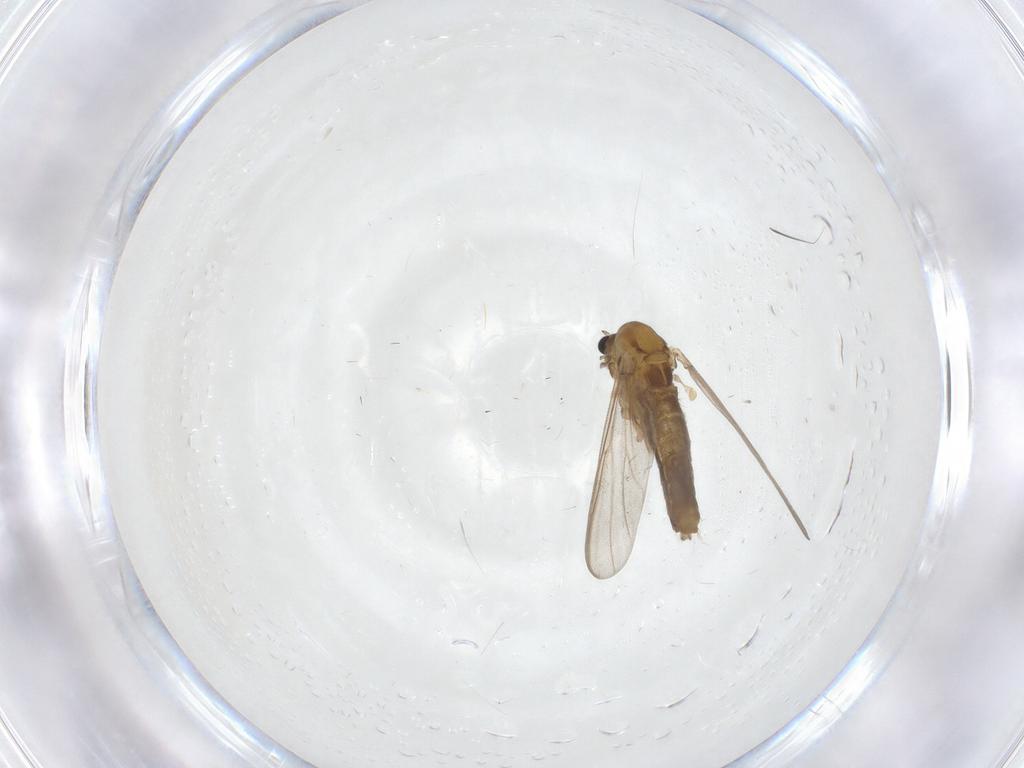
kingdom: Animalia
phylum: Arthropoda
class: Insecta
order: Diptera
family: Chironomidae
